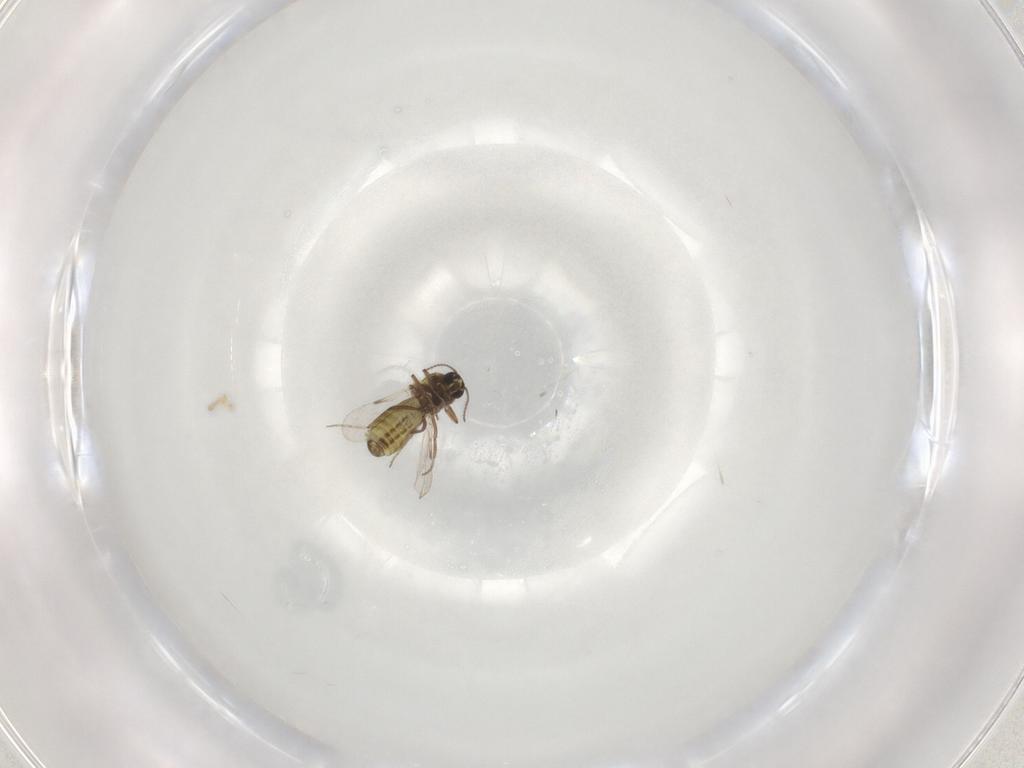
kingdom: Animalia
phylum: Arthropoda
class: Insecta
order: Diptera
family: Ceratopogonidae
